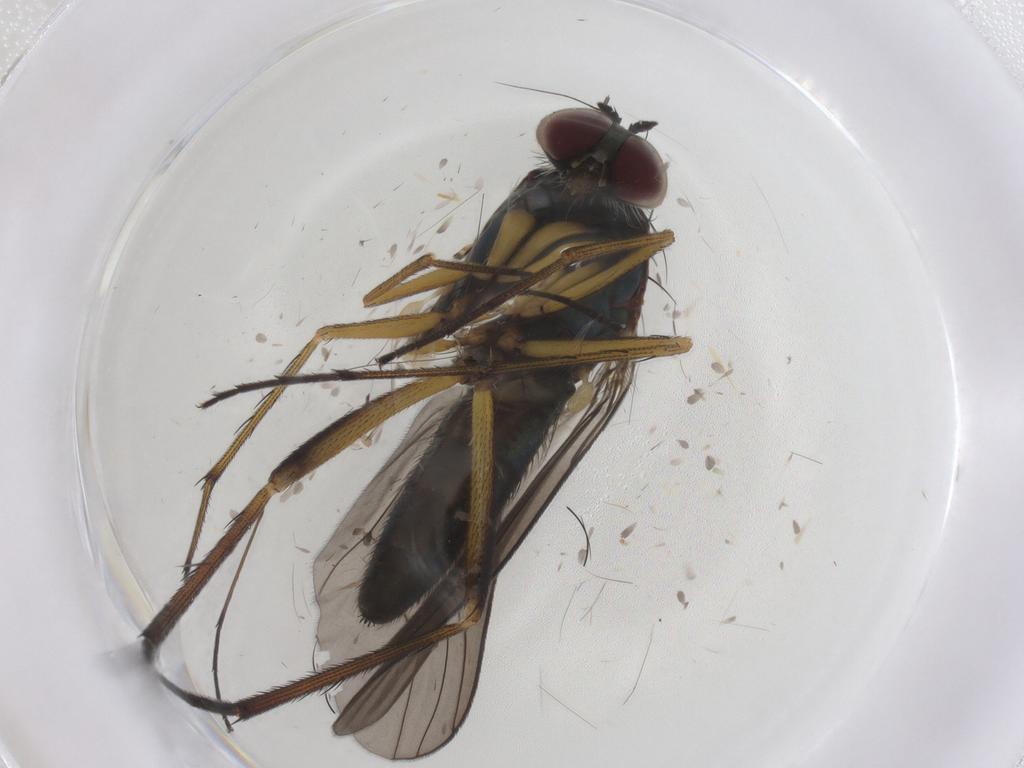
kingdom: Animalia
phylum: Arthropoda
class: Insecta
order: Diptera
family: Dolichopodidae
